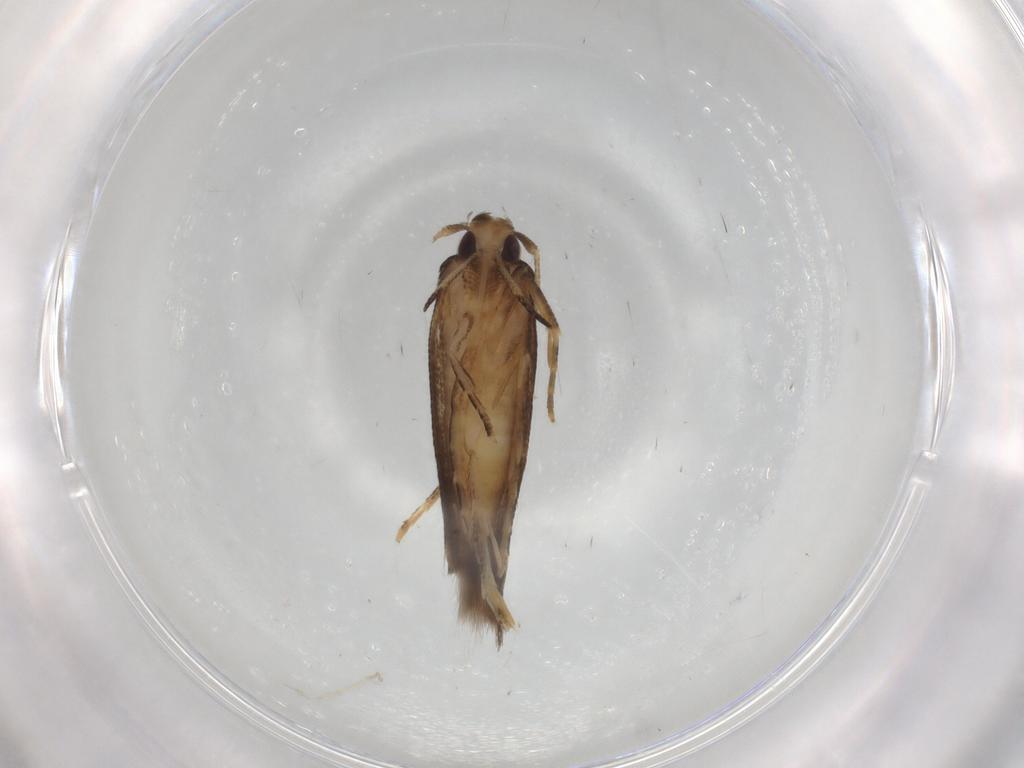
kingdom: Animalia
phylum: Arthropoda
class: Insecta
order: Lepidoptera
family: Cosmopterigidae
